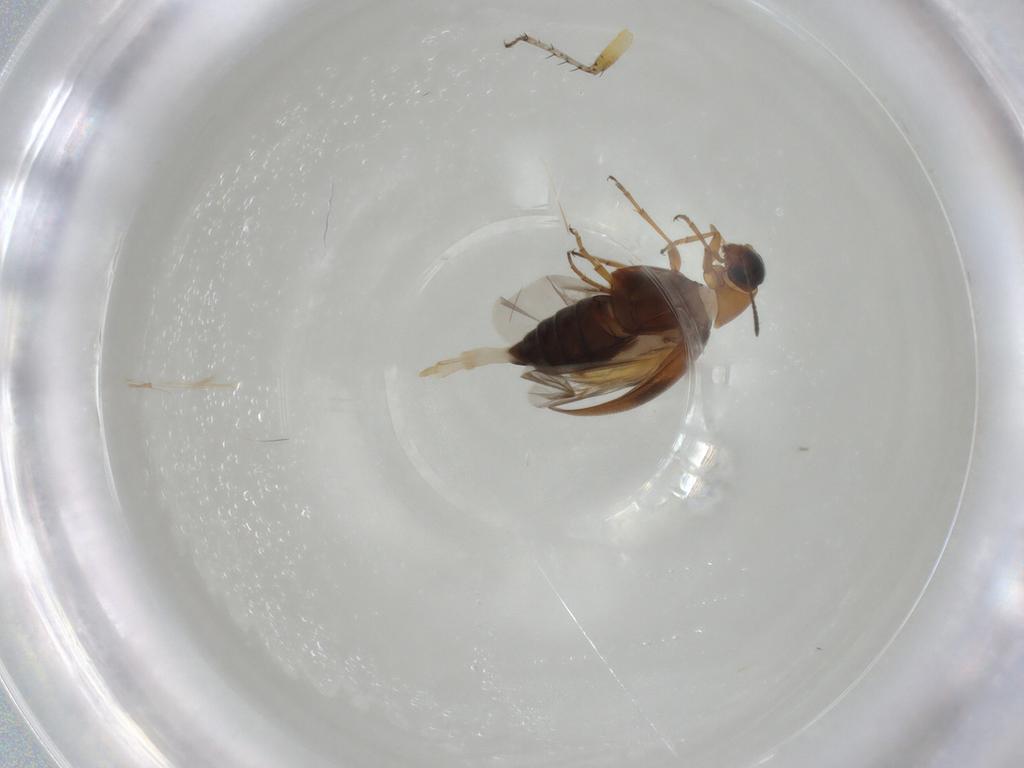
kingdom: Animalia
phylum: Arthropoda
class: Insecta
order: Coleoptera
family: Scraptiidae
